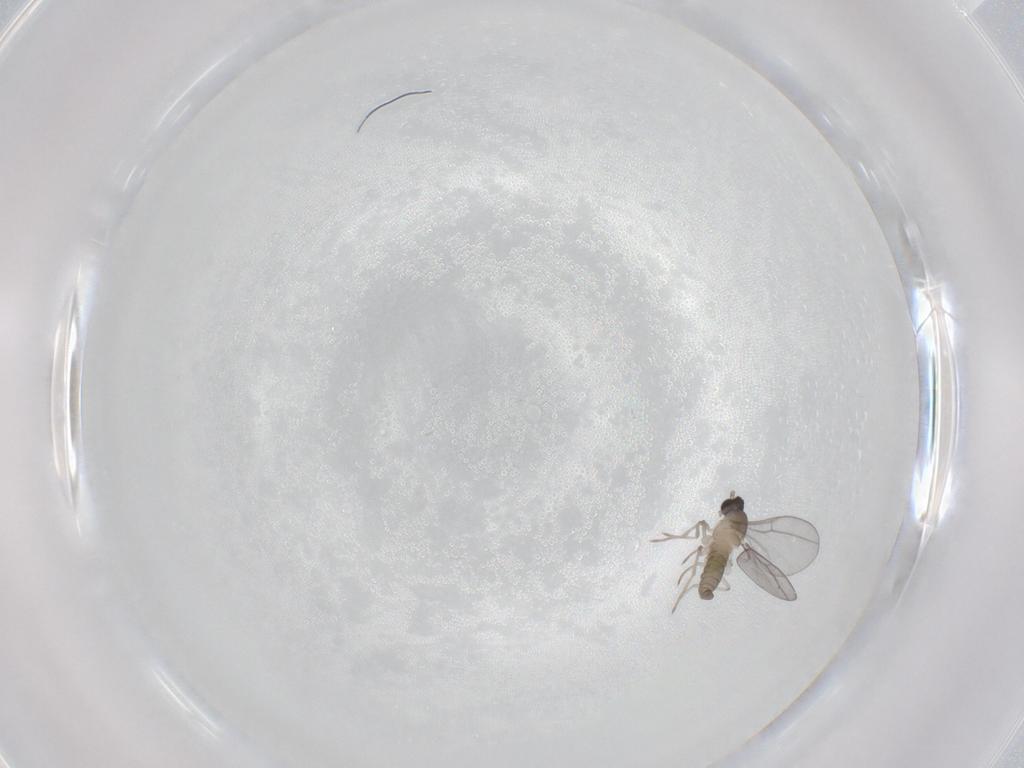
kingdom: Animalia
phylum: Arthropoda
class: Insecta
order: Diptera
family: Cecidomyiidae
